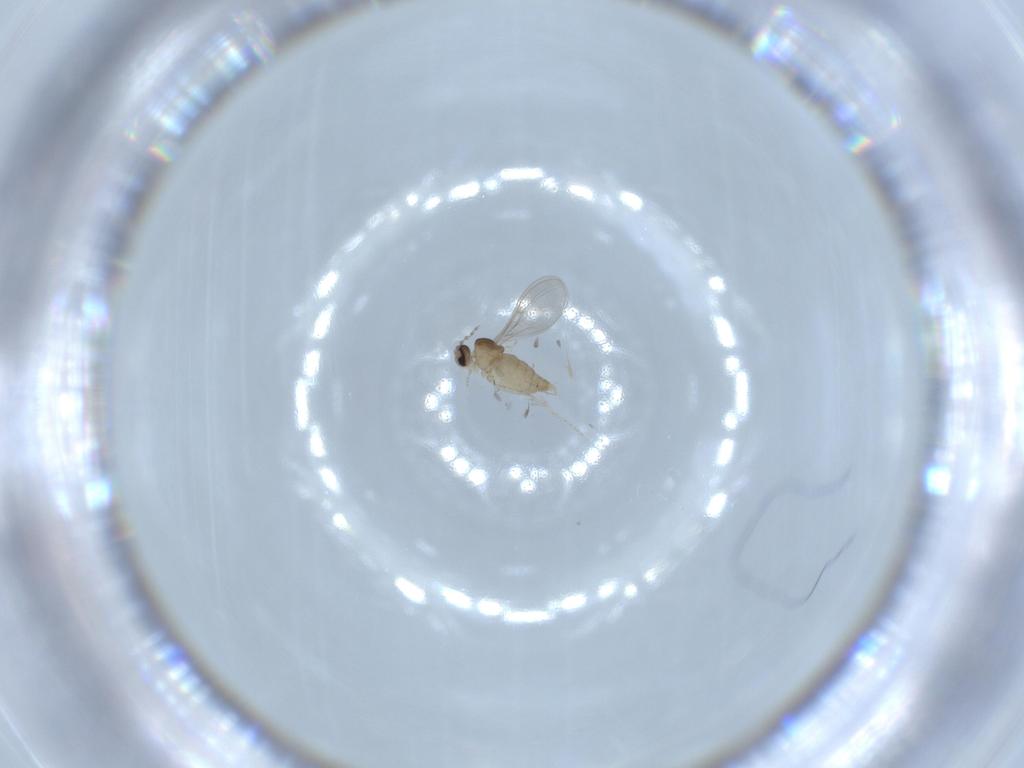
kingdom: Animalia
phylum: Arthropoda
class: Insecta
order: Diptera
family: Cecidomyiidae
